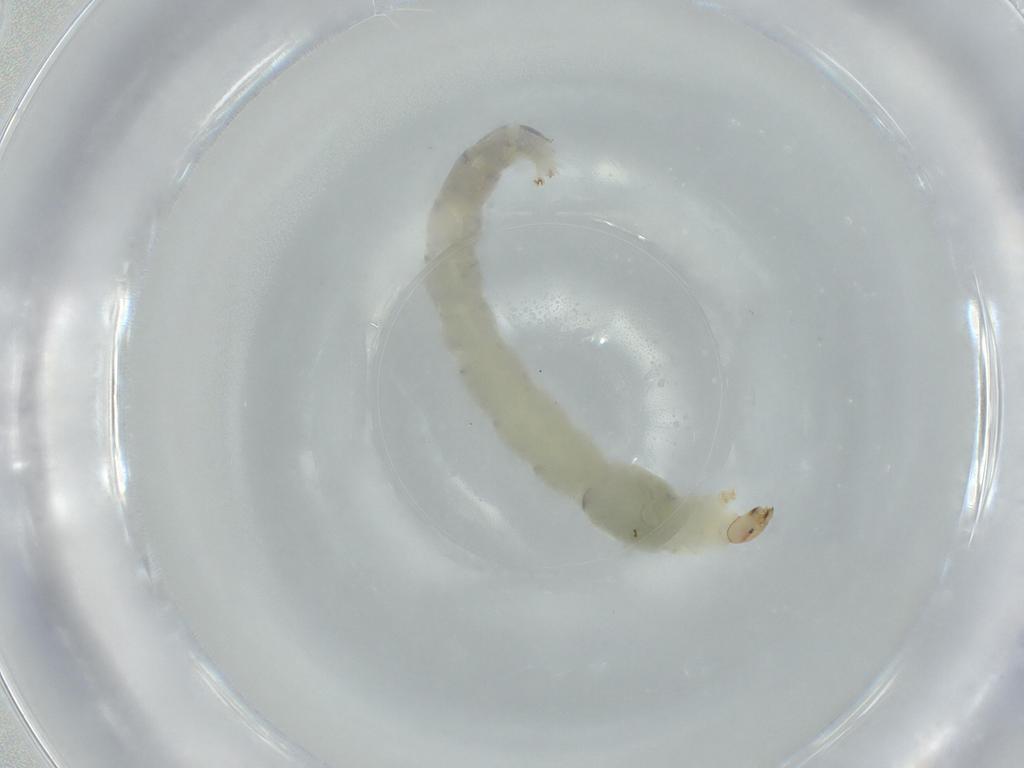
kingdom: Animalia
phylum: Arthropoda
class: Insecta
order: Diptera
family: Chironomidae
